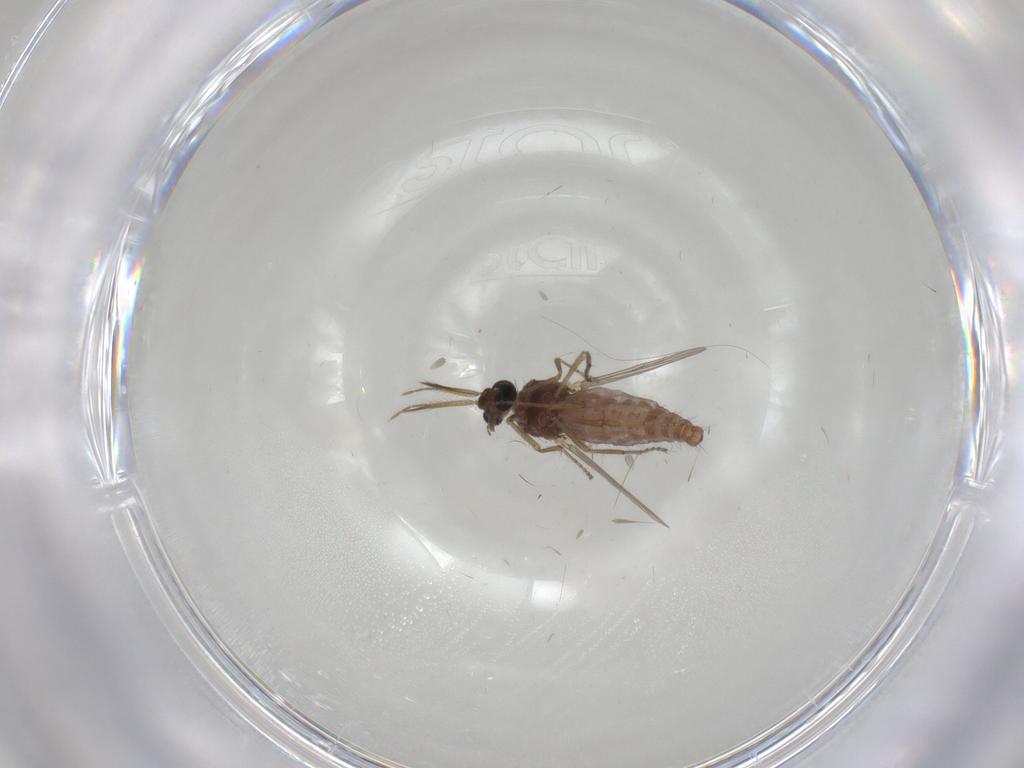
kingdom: Animalia
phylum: Arthropoda
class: Insecta
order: Diptera
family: Ceratopogonidae
